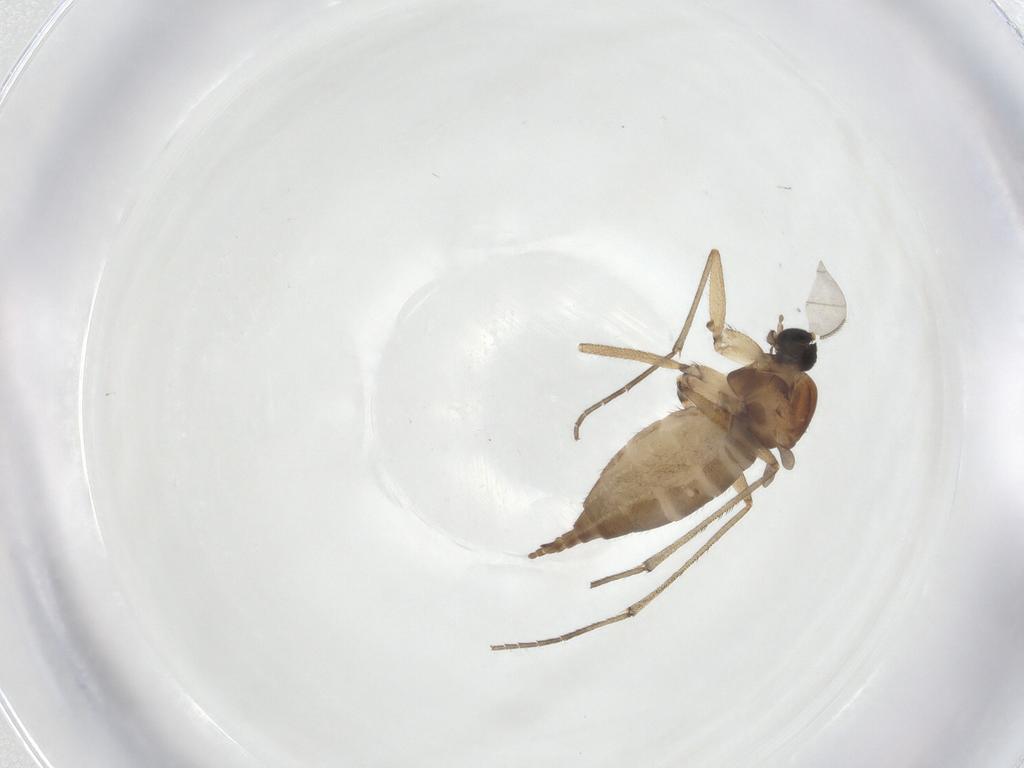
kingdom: Animalia
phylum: Arthropoda
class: Insecta
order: Diptera
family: Sciaridae
